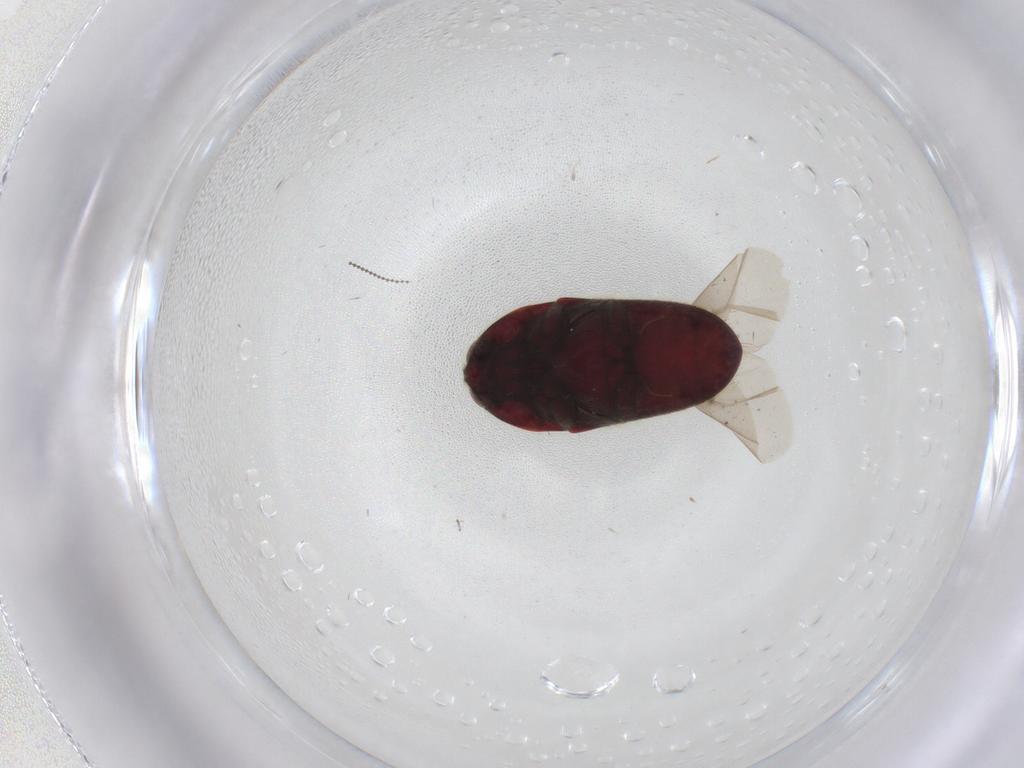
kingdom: Animalia
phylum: Arthropoda
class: Insecta
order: Coleoptera
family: Throscidae
